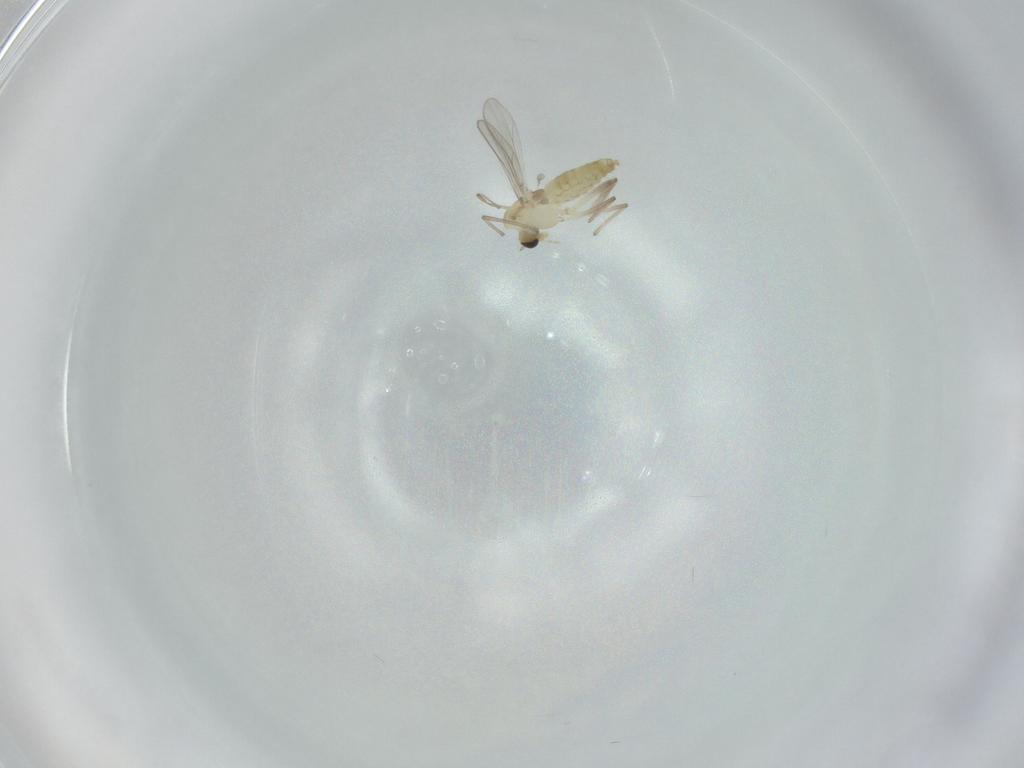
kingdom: Animalia
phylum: Arthropoda
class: Insecta
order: Diptera
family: Chironomidae
